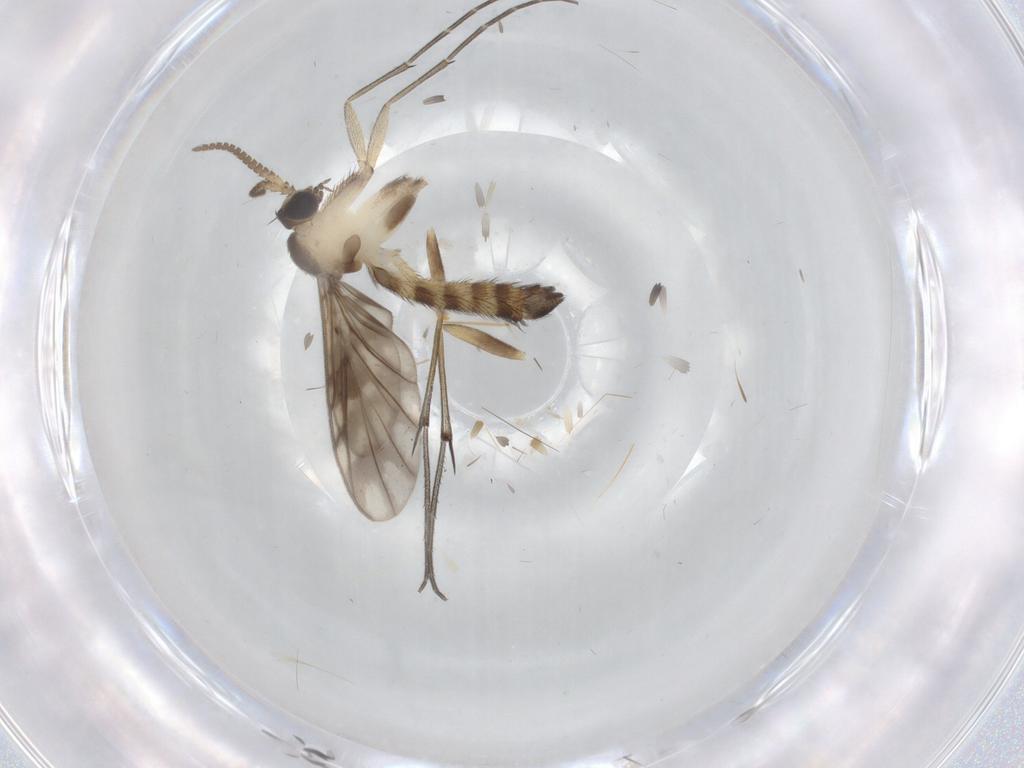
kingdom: Animalia
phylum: Arthropoda
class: Insecta
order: Diptera
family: Keroplatidae
